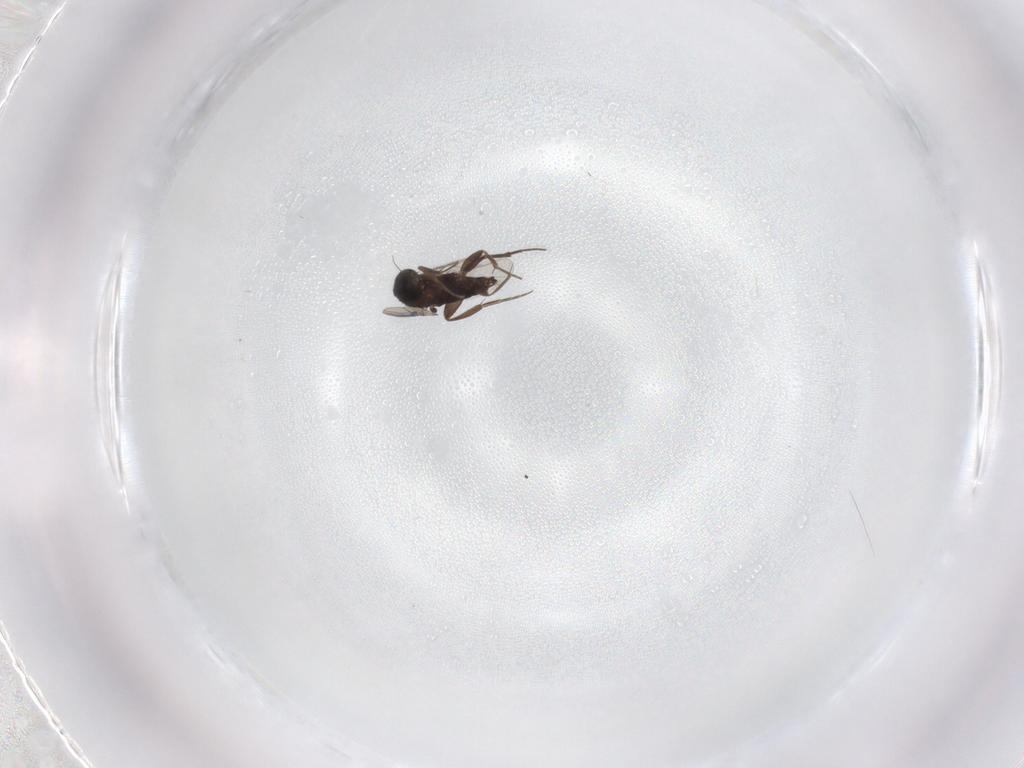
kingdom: Animalia
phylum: Arthropoda
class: Insecta
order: Diptera
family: Phoridae
